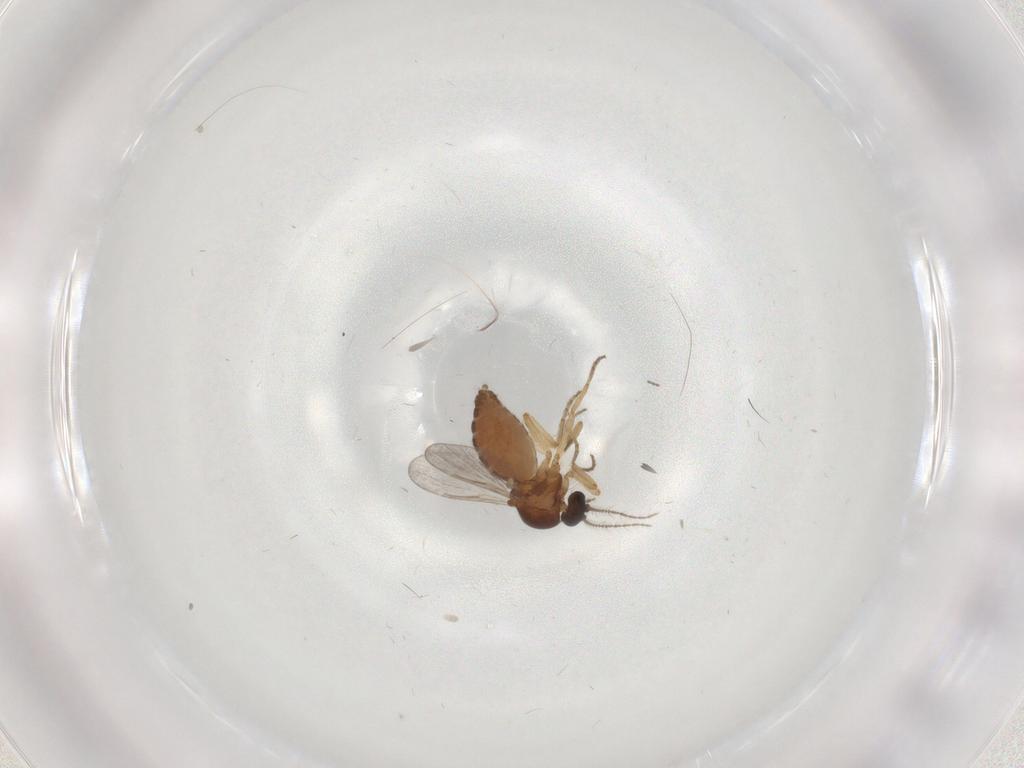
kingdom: Animalia
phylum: Arthropoda
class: Insecta
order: Diptera
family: Ceratopogonidae
